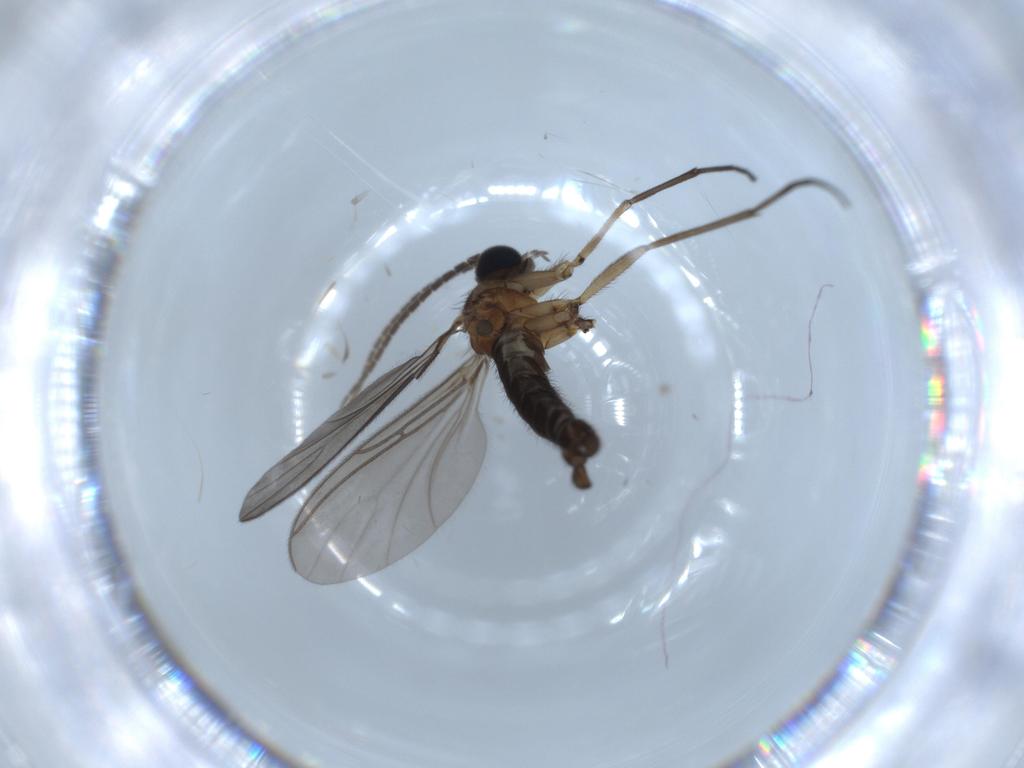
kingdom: Animalia
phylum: Arthropoda
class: Insecta
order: Diptera
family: Sciaridae
